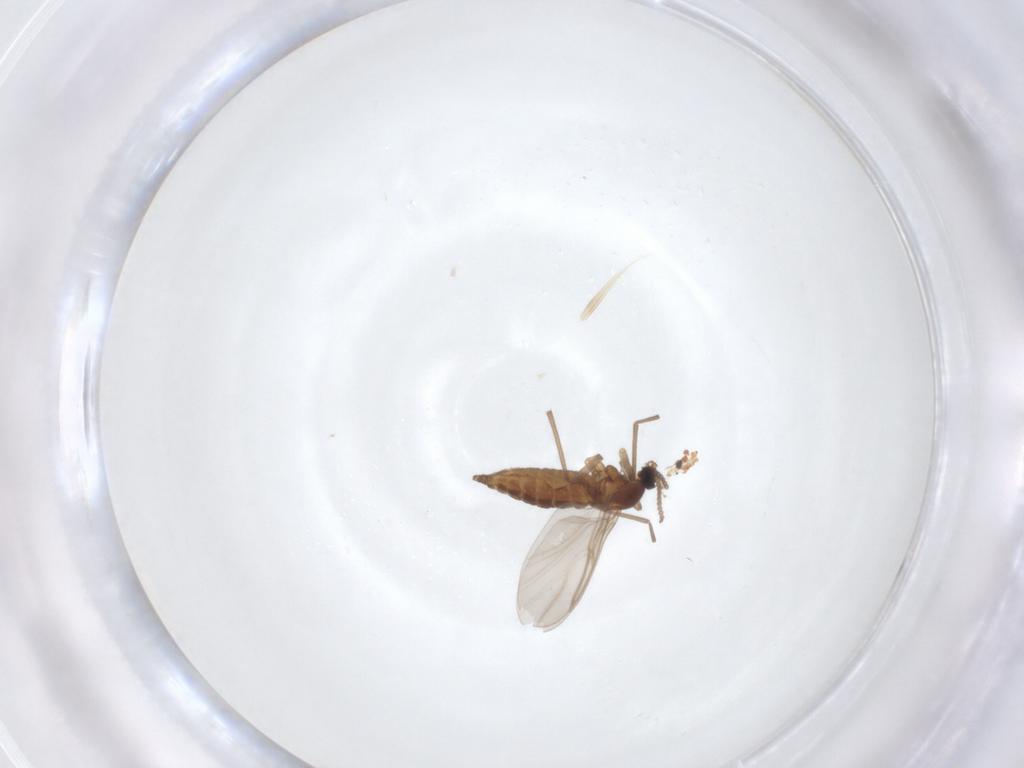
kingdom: Animalia
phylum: Arthropoda
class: Insecta
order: Diptera
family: Cecidomyiidae
